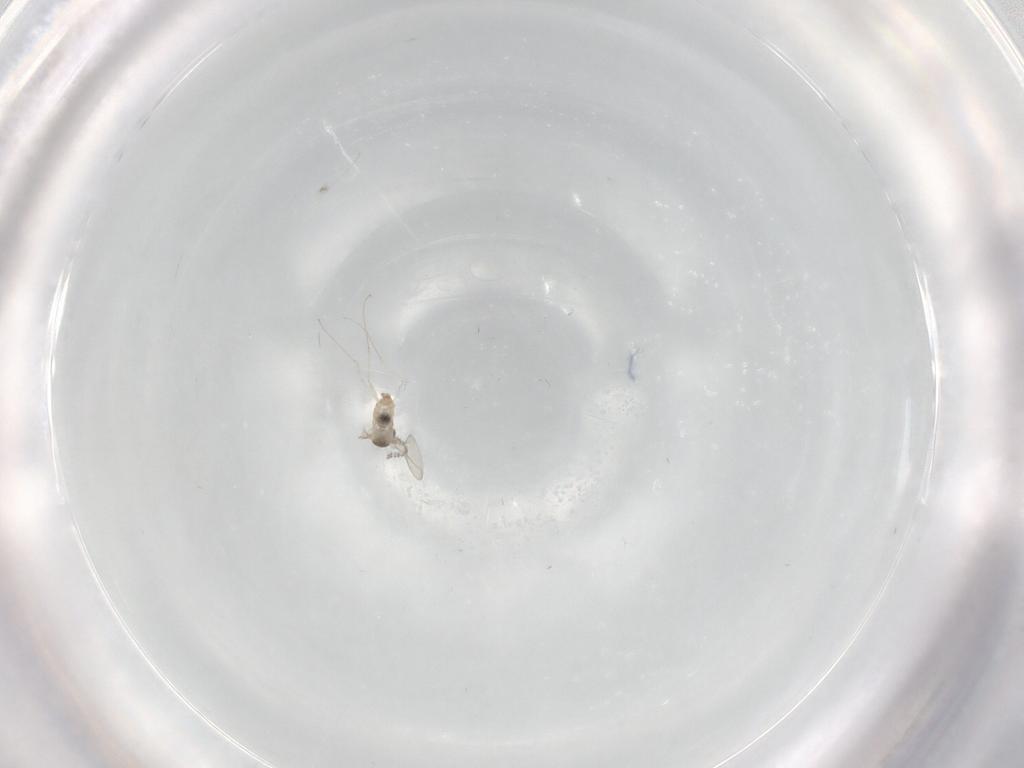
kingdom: Animalia
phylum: Arthropoda
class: Insecta
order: Diptera
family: Cecidomyiidae
